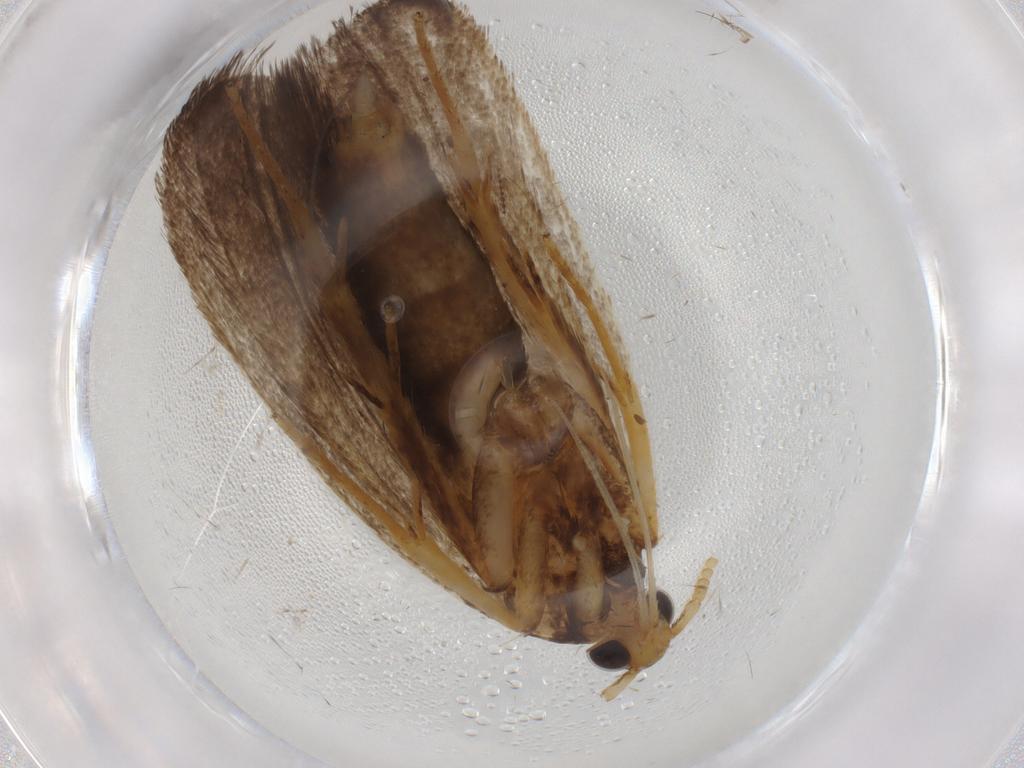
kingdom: Animalia
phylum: Arthropoda
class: Insecta
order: Lepidoptera
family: Lecithoceridae
